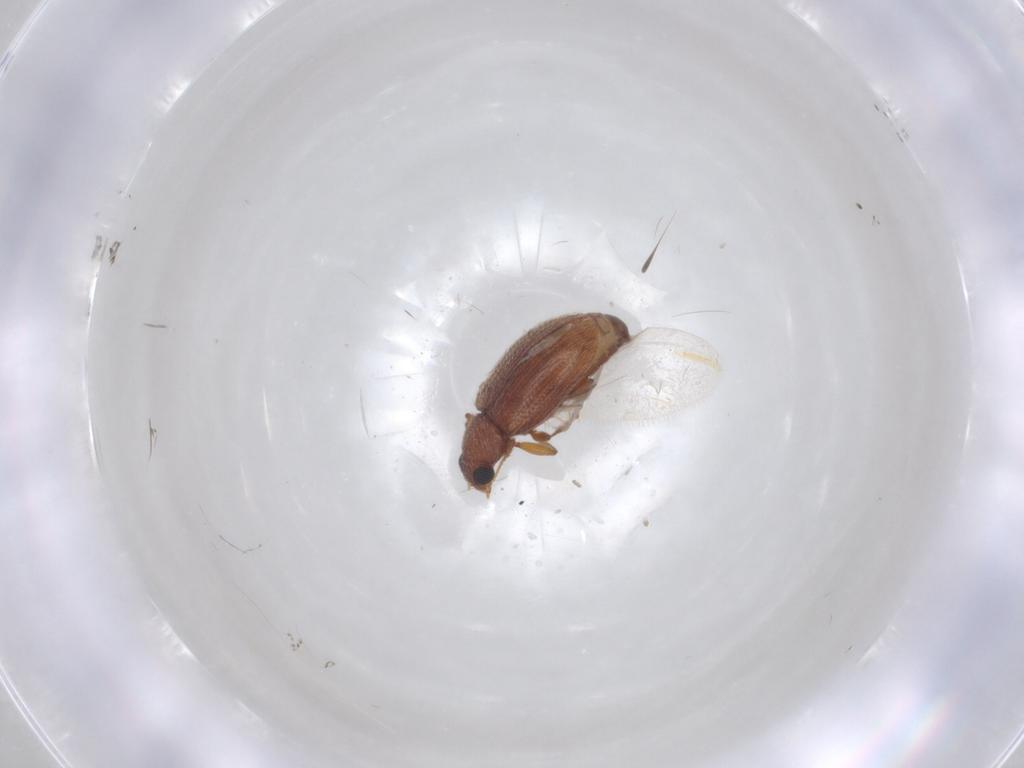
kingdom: Animalia
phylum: Arthropoda
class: Insecta
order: Coleoptera
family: Latridiidae
